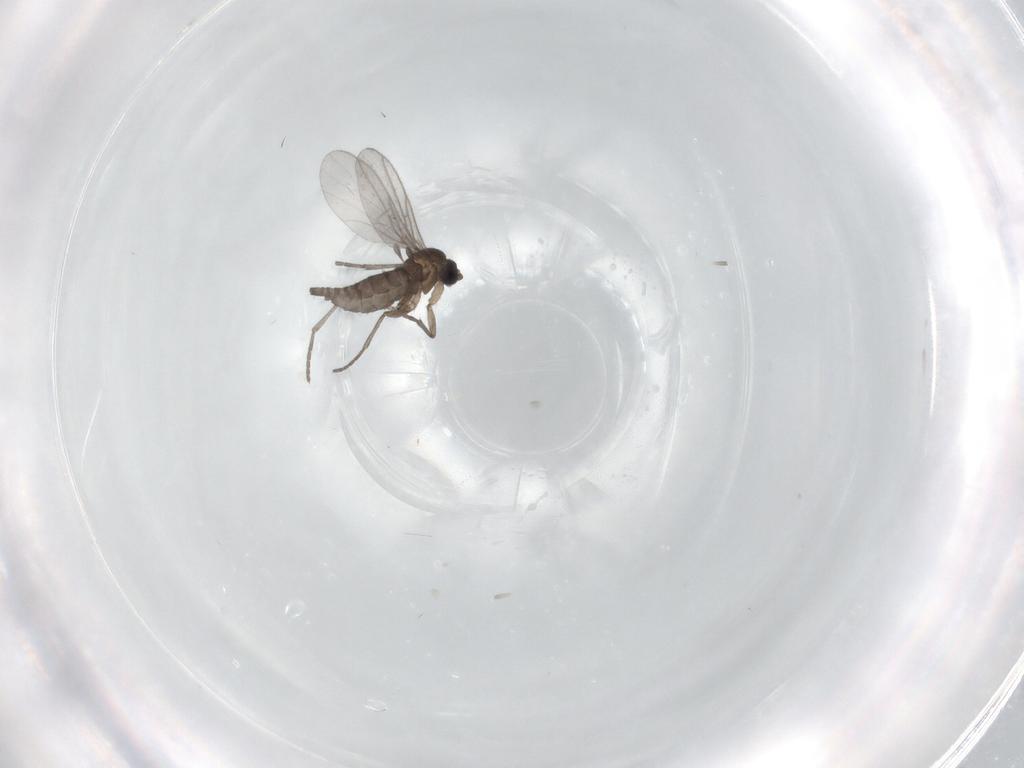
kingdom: Animalia
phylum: Arthropoda
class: Insecta
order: Diptera
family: Sciaridae
